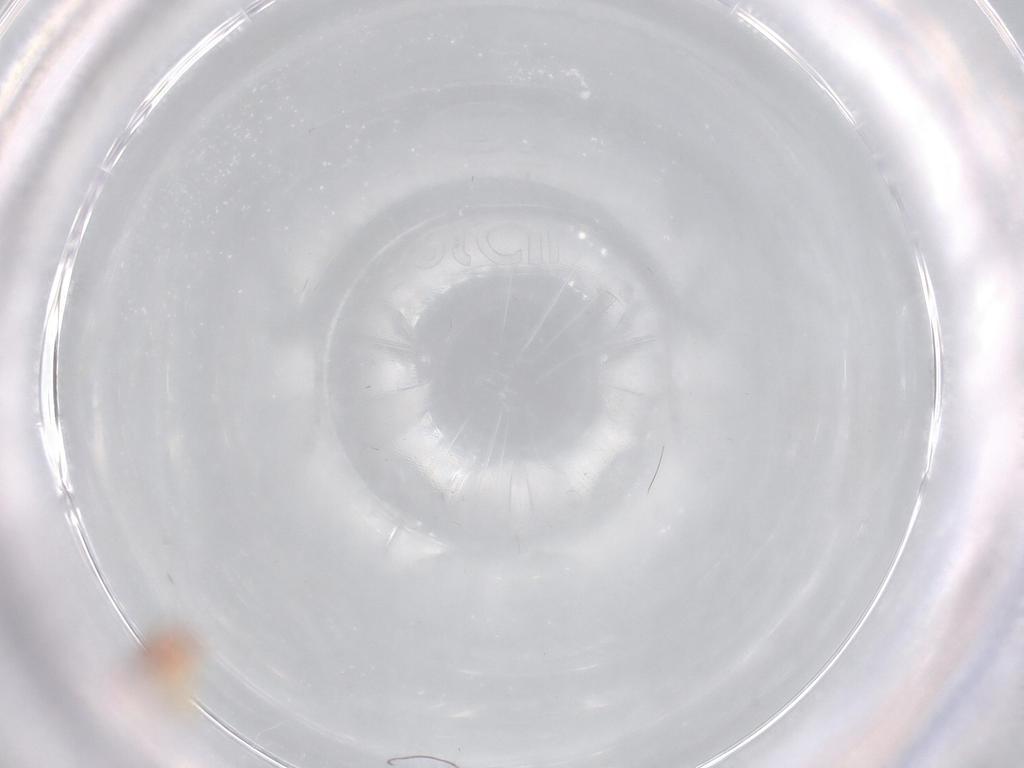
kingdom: Animalia
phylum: Arthropoda
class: Insecta
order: Hemiptera
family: Aleyrodidae
